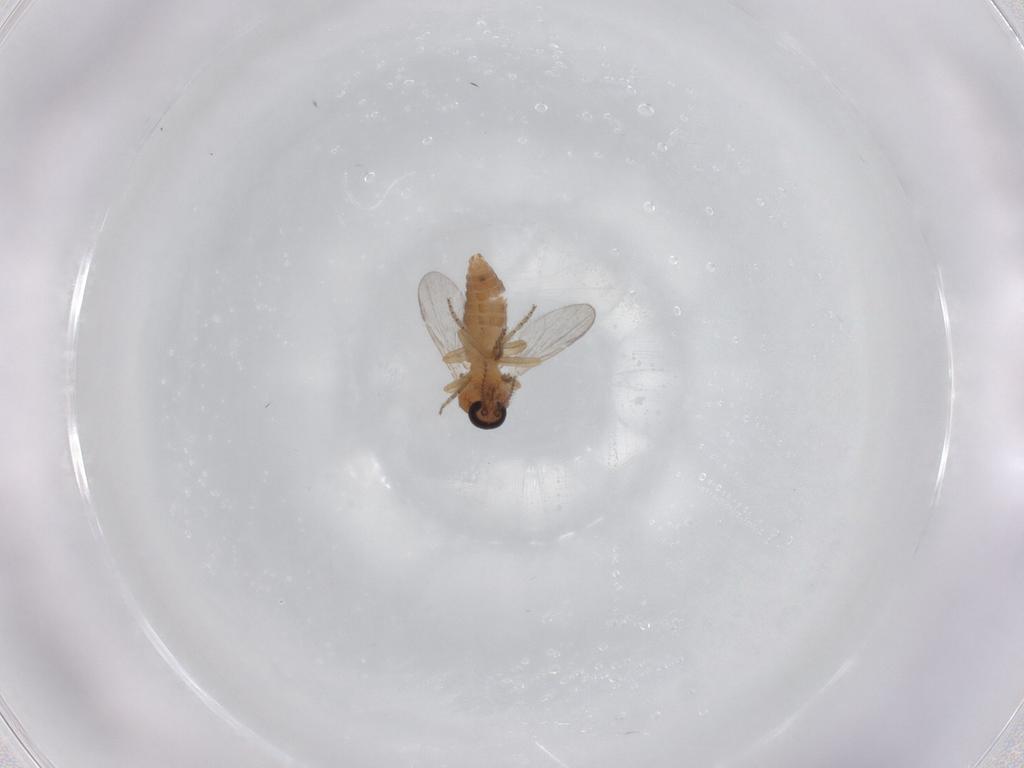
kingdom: Animalia
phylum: Arthropoda
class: Insecta
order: Diptera
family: Ceratopogonidae
